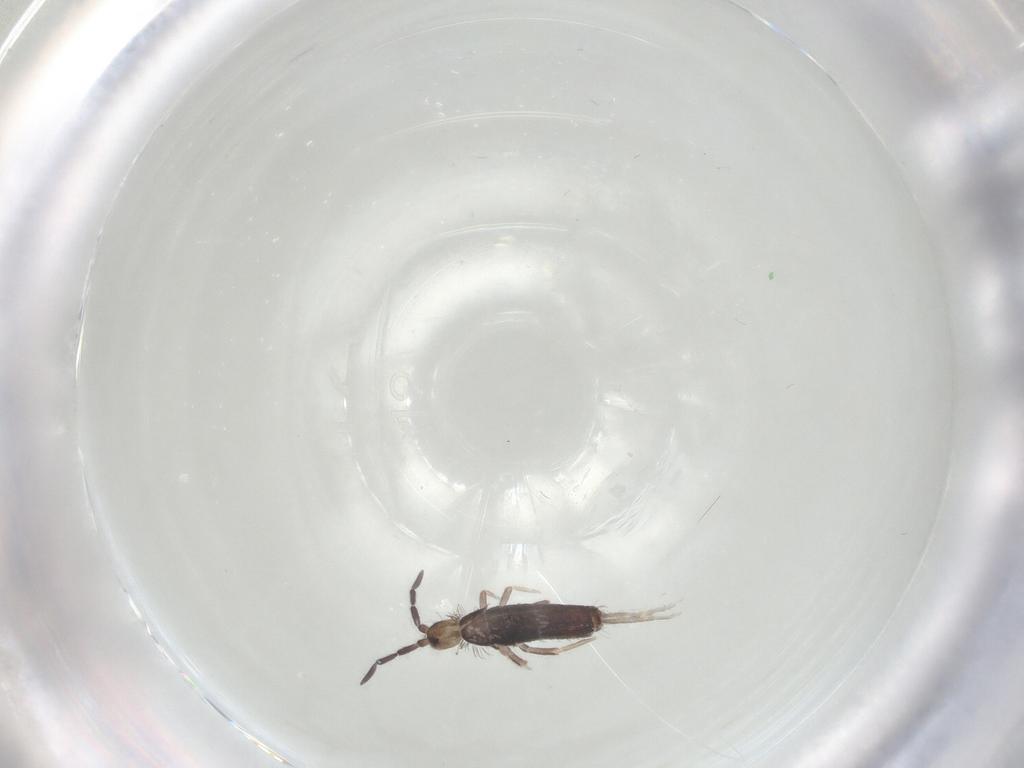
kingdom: Animalia
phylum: Arthropoda
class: Collembola
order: Entomobryomorpha
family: Entomobryidae
